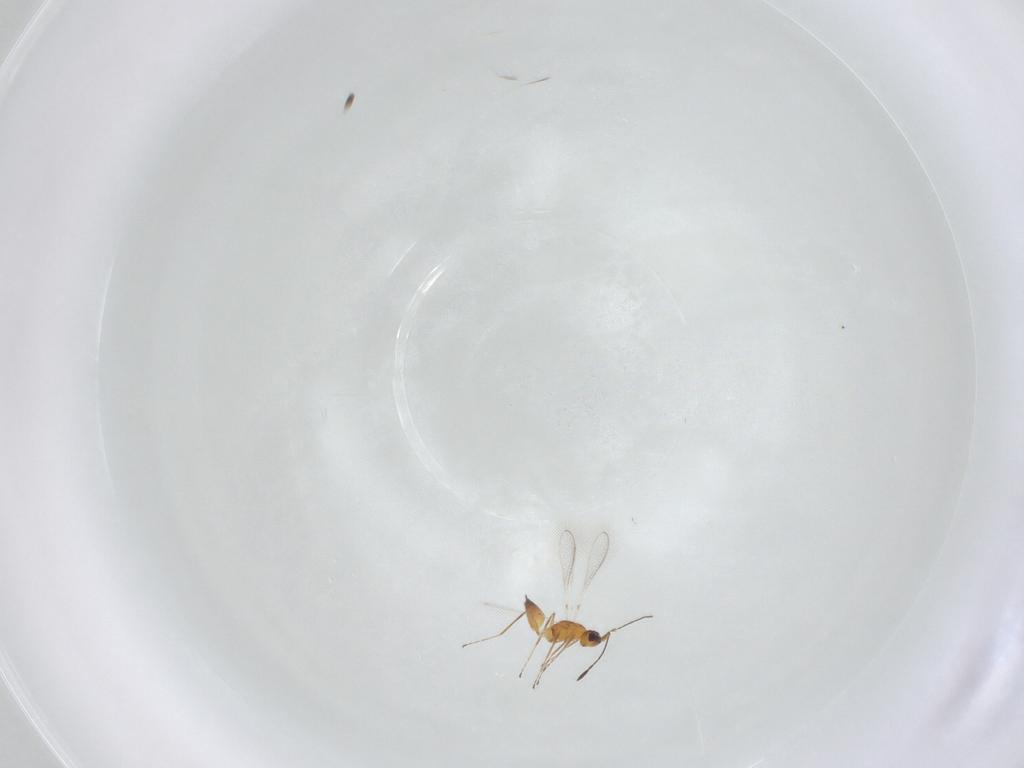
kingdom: Animalia
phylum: Arthropoda
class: Insecta
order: Hymenoptera
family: Mymaridae
